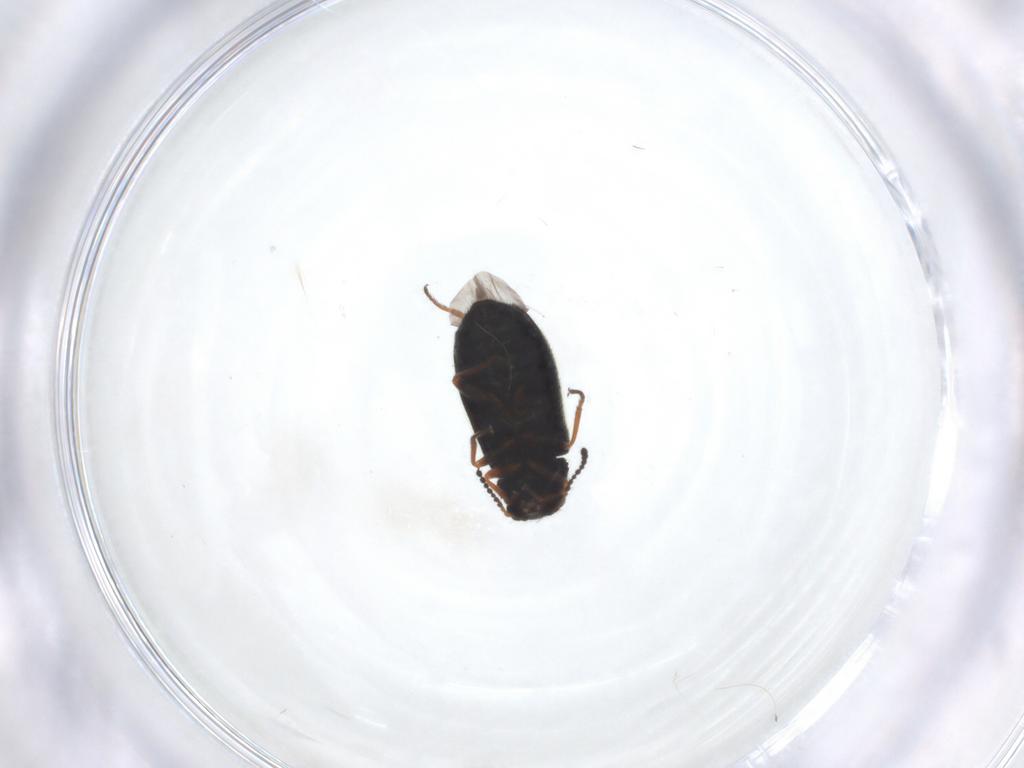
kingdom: Animalia
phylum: Arthropoda
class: Insecta
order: Coleoptera
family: Melyridae
